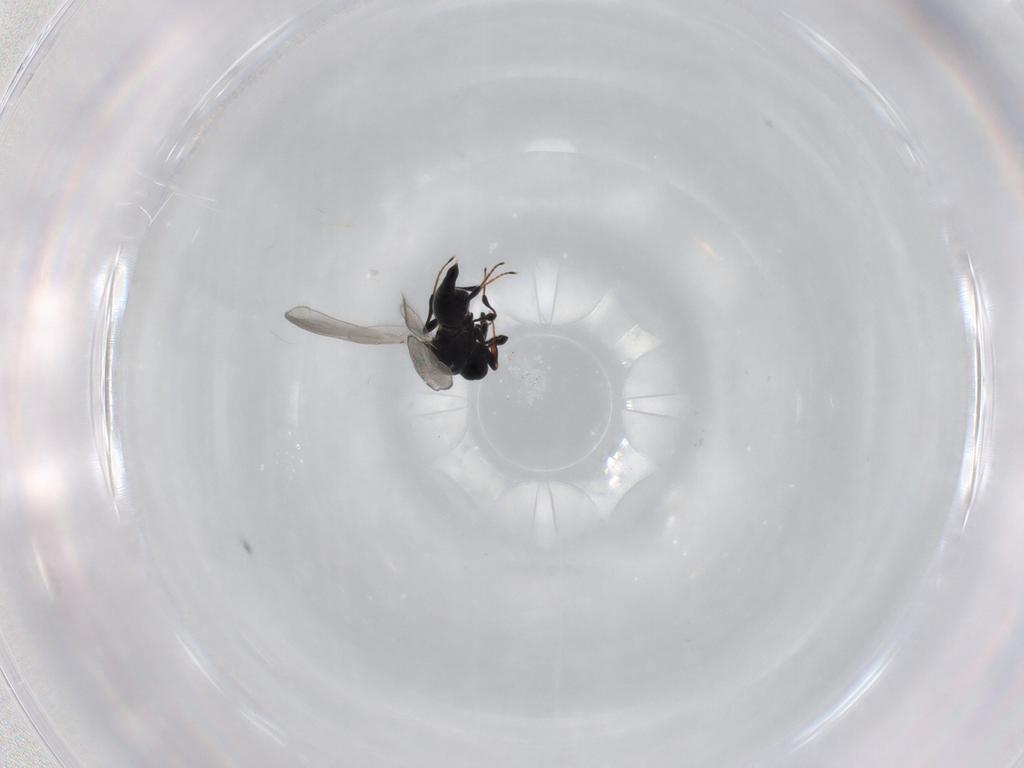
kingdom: Animalia
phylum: Arthropoda
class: Insecta
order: Hymenoptera
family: Platygastridae
